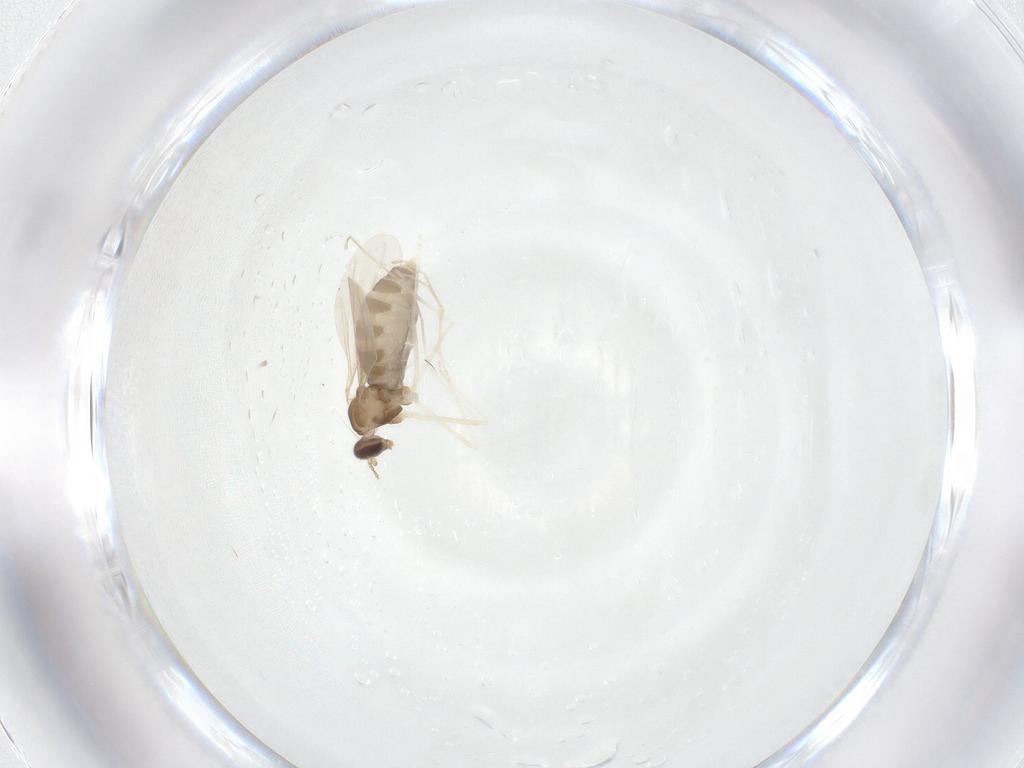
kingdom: Animalia
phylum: Arthropoda
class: Insecta
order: Diptera
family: Cecidomyiidae
